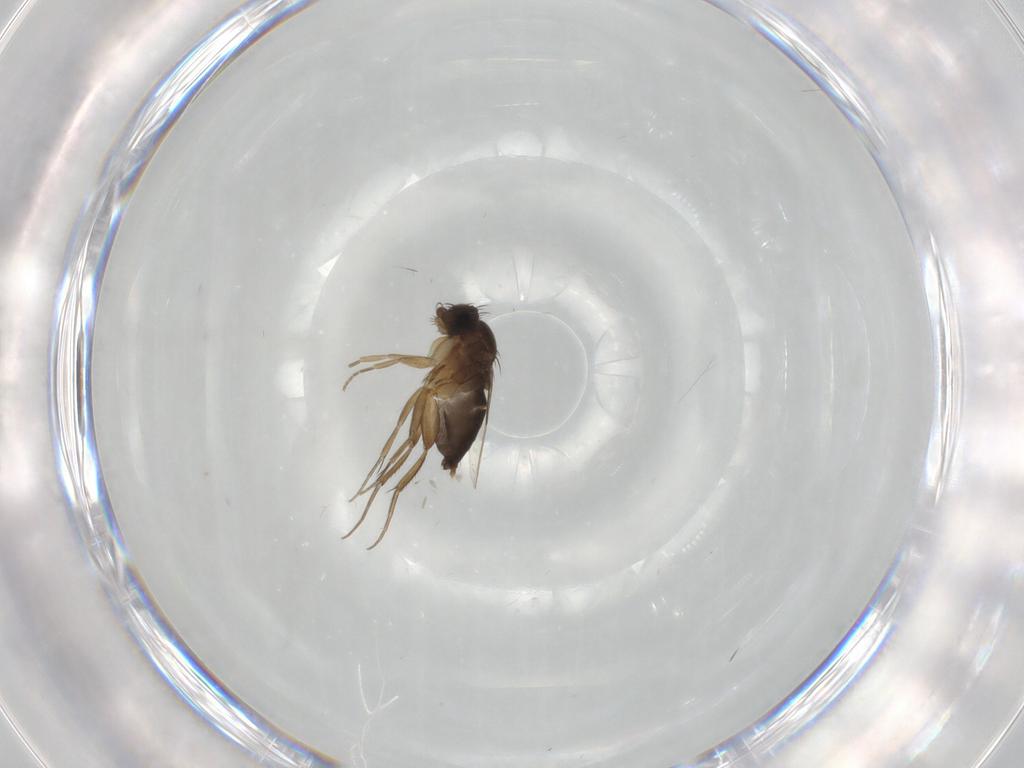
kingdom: Animalia
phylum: Arthropoda
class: Insecta
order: Diptera
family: Phoridae
